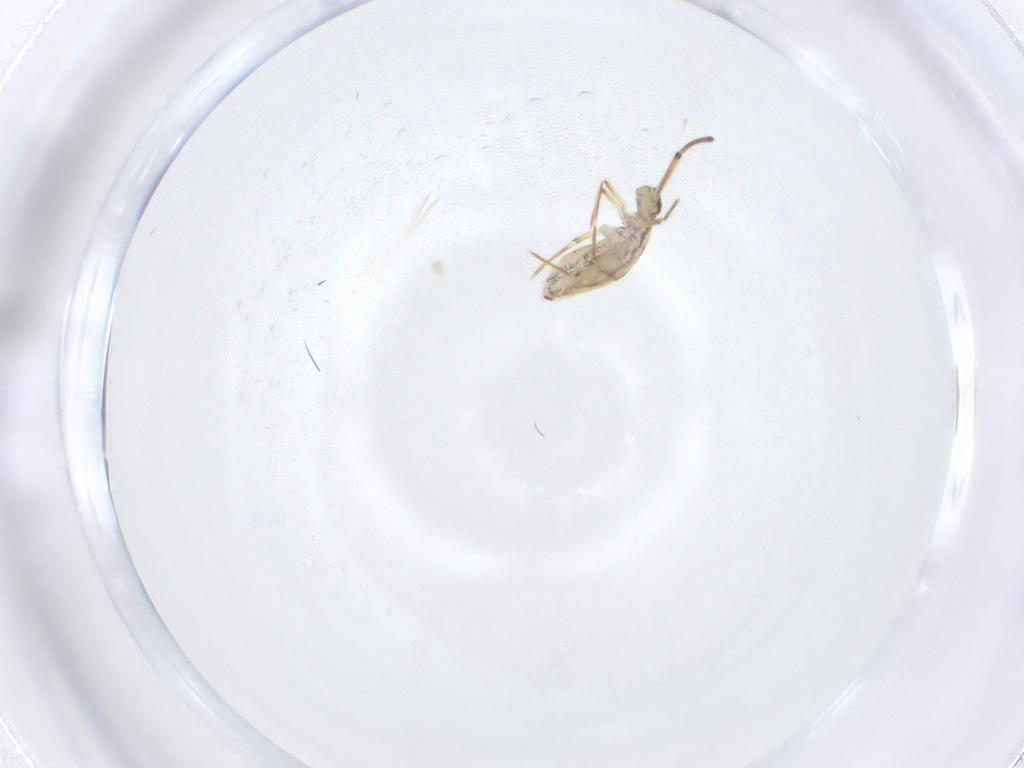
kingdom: Animalia
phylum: Arthropoda
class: Collembola
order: Entomobryomorpha
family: Paronellidae
